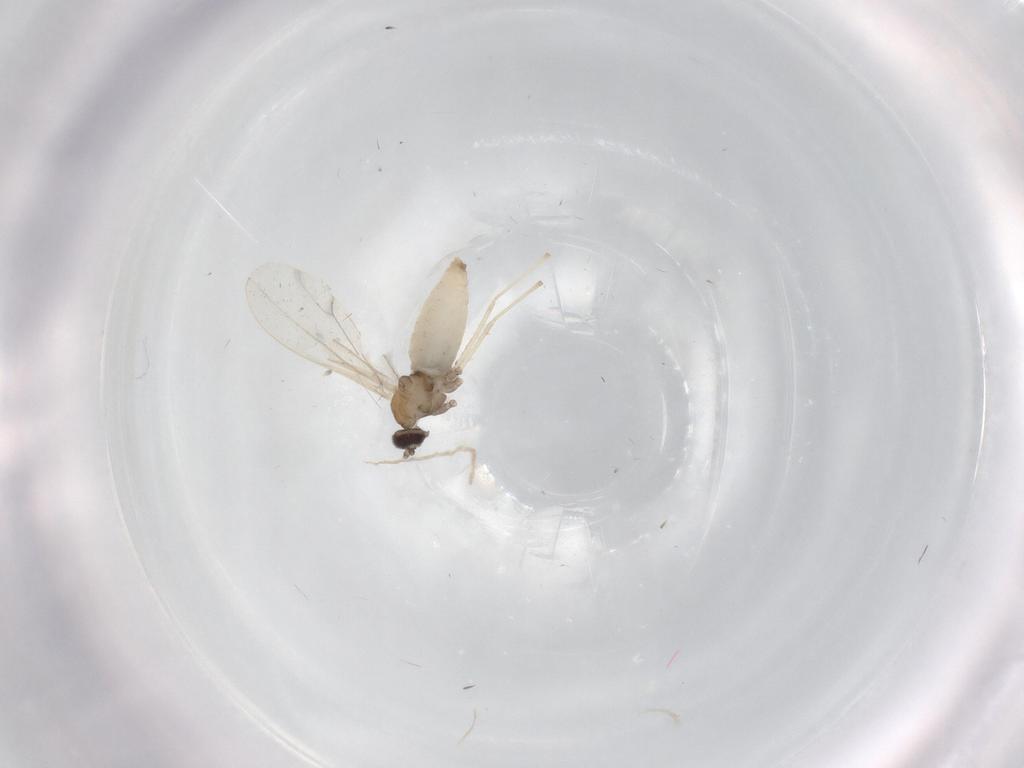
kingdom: Animalia
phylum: Arthropoda
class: Insecta
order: Diptera
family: Cecidomyiidae
